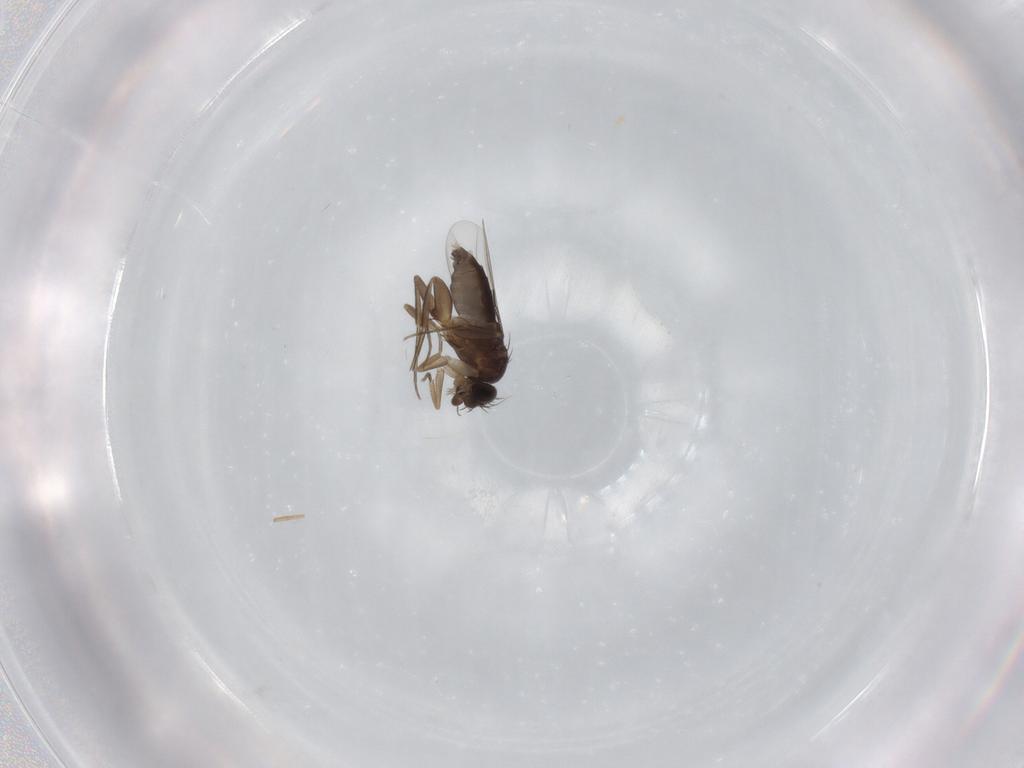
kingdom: Animalia
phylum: Arthropoda
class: Insecta
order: Diptera
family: Phoridae
